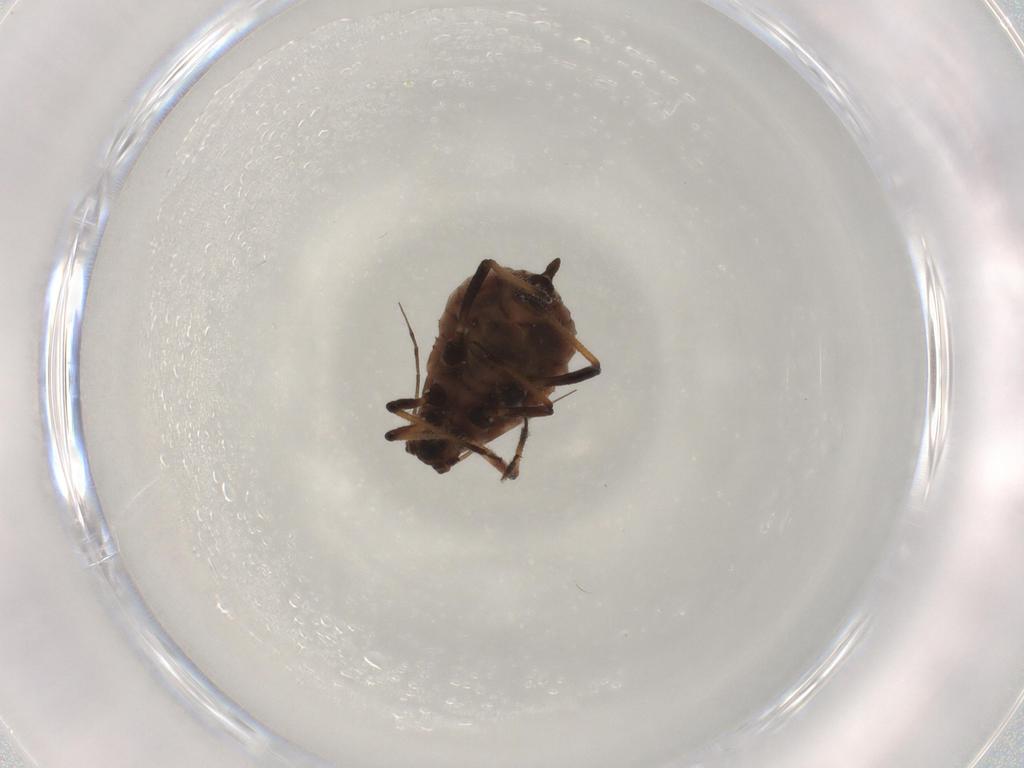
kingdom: Animalia
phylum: Arthropoda
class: Insecta
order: Hemiptera
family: Aphididae
